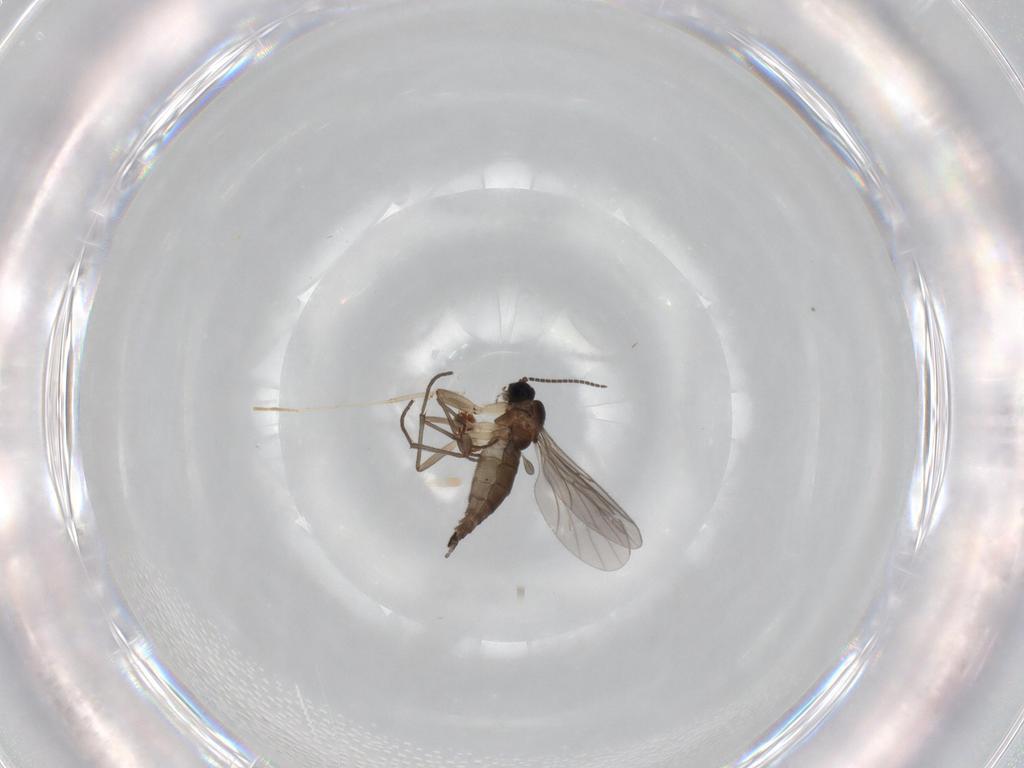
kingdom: Animalia
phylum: Arthropoda
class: Insecta
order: Diptera
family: Sciaridae
